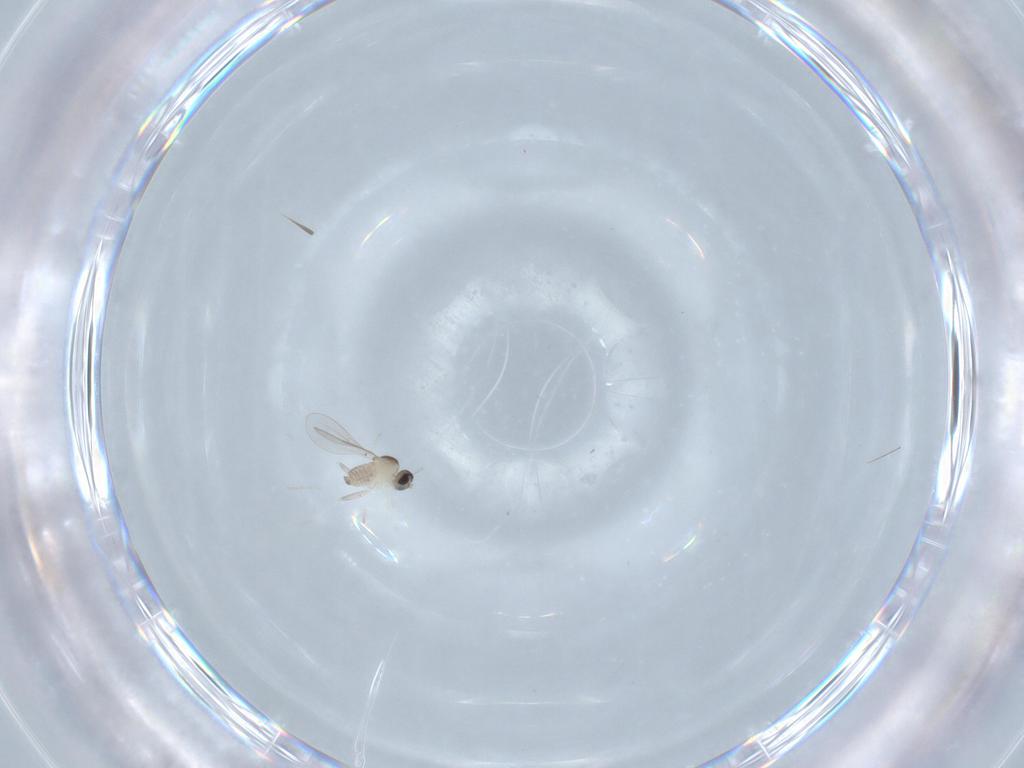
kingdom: Animalia
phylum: Arthropoda
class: Insecta
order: Diptera
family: Cecidomyiidae
